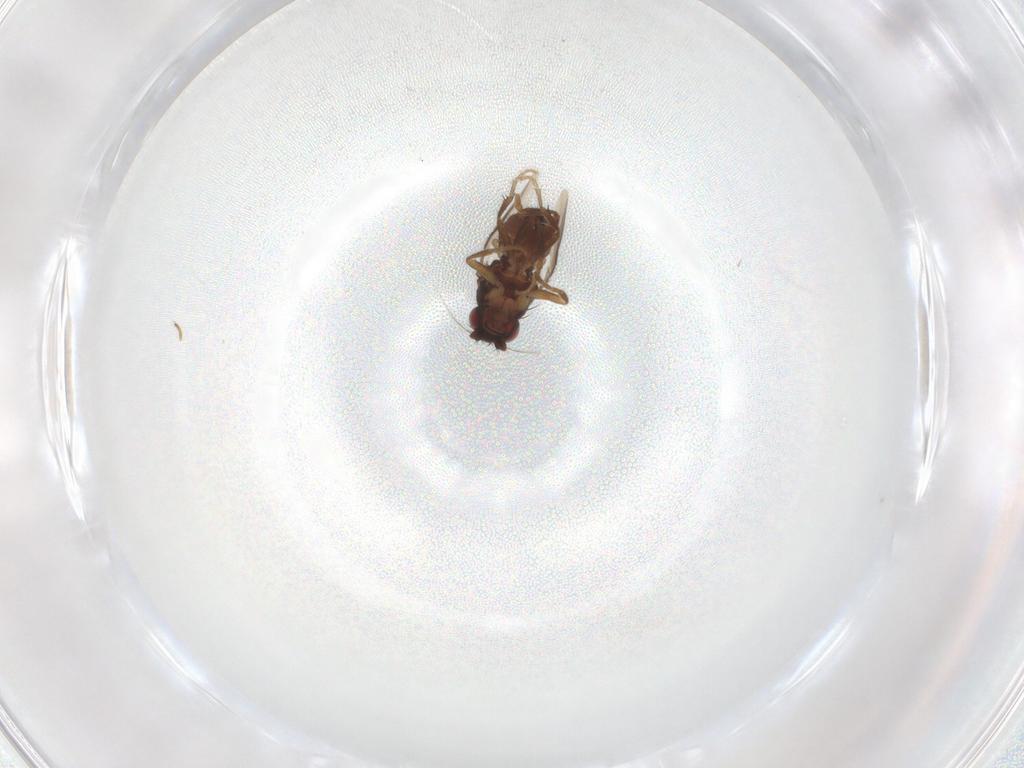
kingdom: Animalia
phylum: Arthropoda
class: Insecta
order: Diptera
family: Sphaeroceridae
